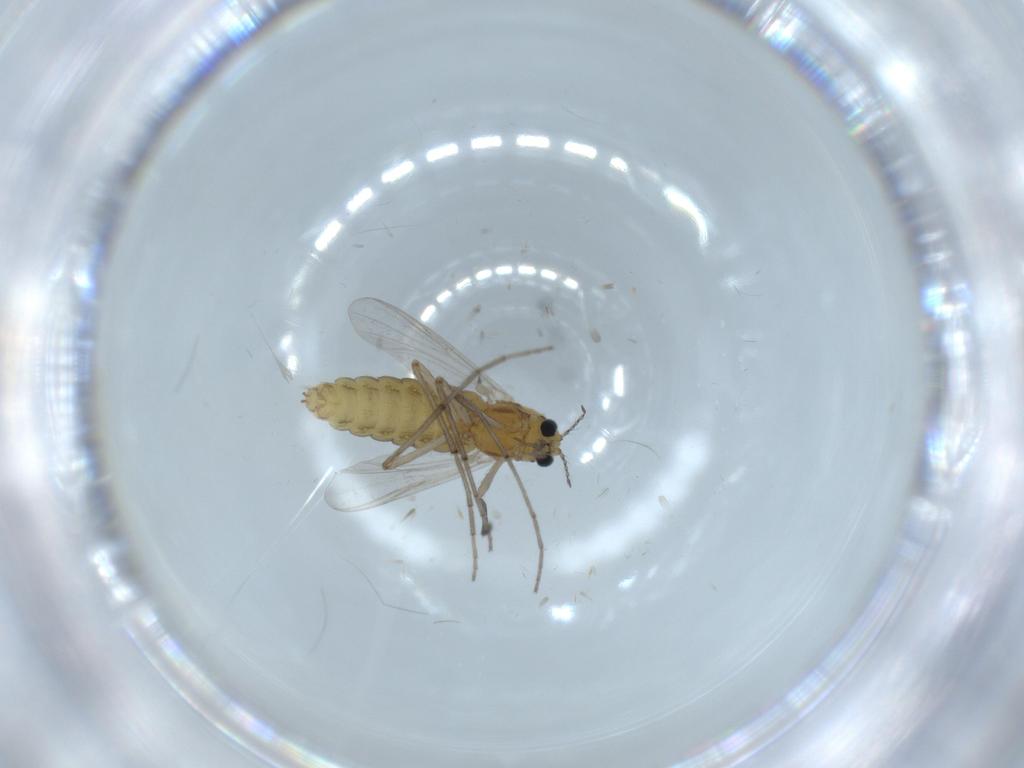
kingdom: Animalia
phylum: Arthropoda
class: Insecta
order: Diptera
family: Chironomidae
